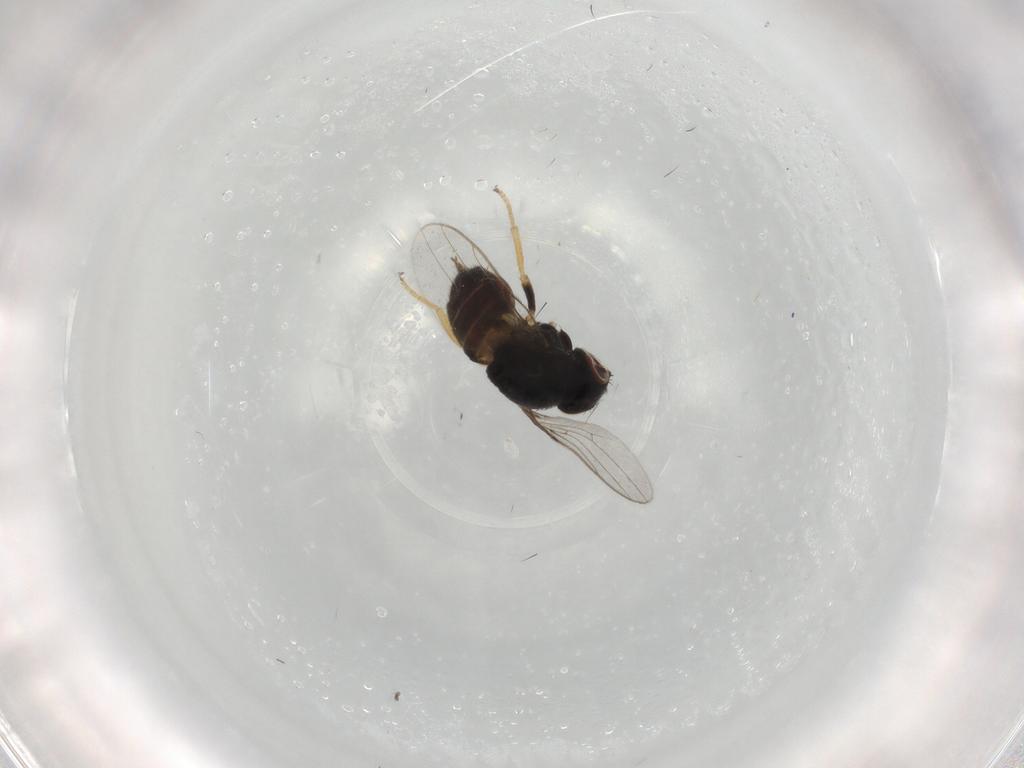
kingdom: Animalia
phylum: Arthropoda
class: Insecta
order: Diptera
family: Chloropidae
